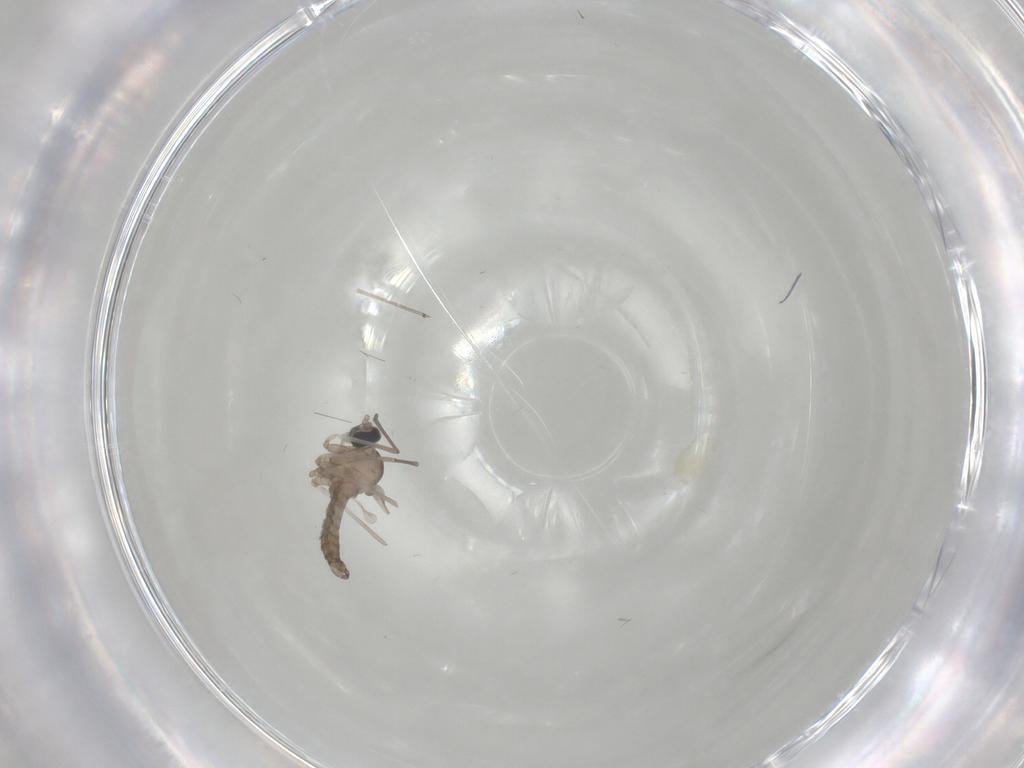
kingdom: Animalia
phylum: Arthropoda
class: Insecta
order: Diptera
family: Cecidomyiidae
